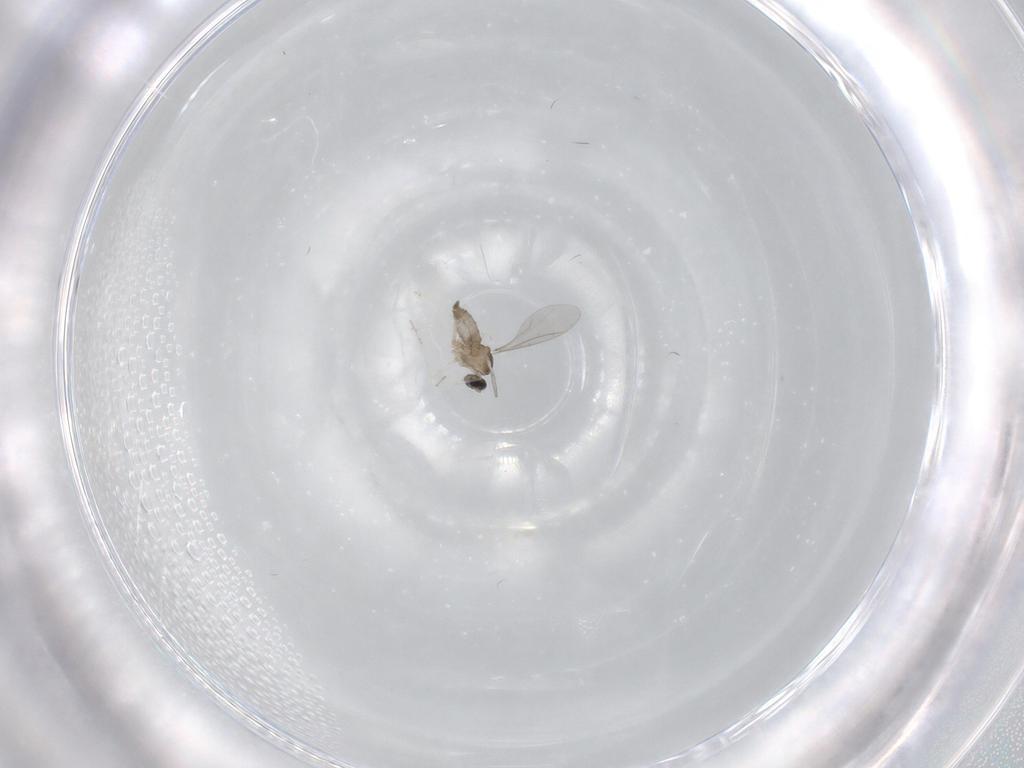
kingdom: Animalia
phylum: Arthropoda
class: Insecta
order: Diptera
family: Cecidomyiidae
